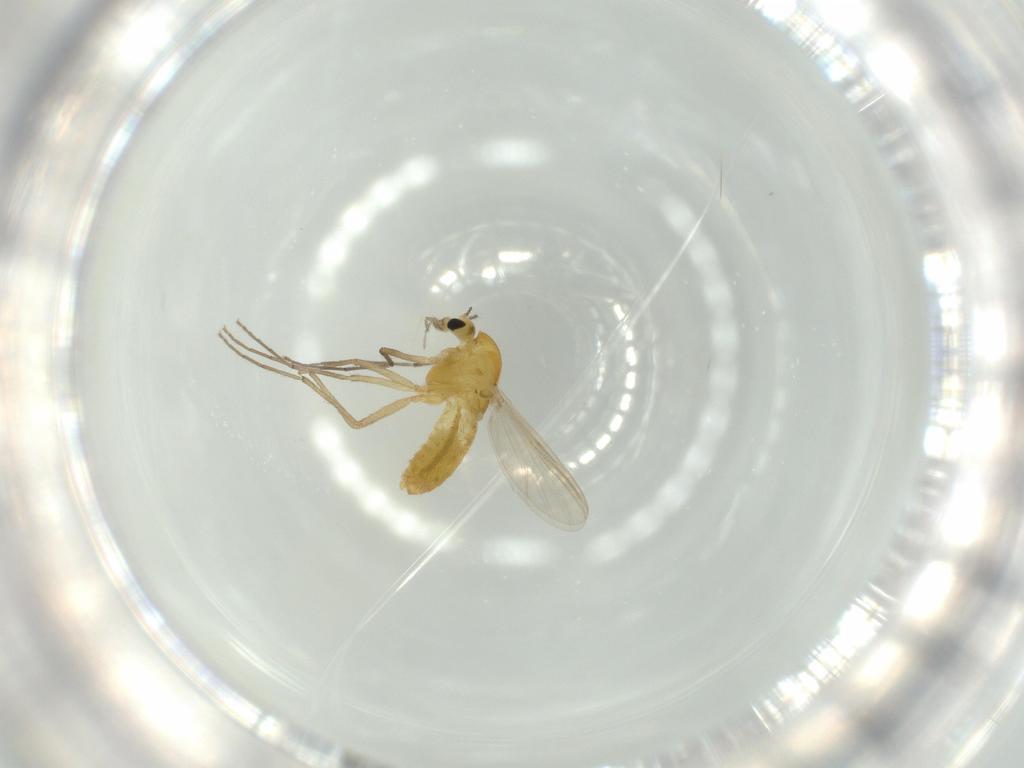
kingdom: Animalia
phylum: Arthropoda
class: Insecta
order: Diptera
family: Chironomidae
